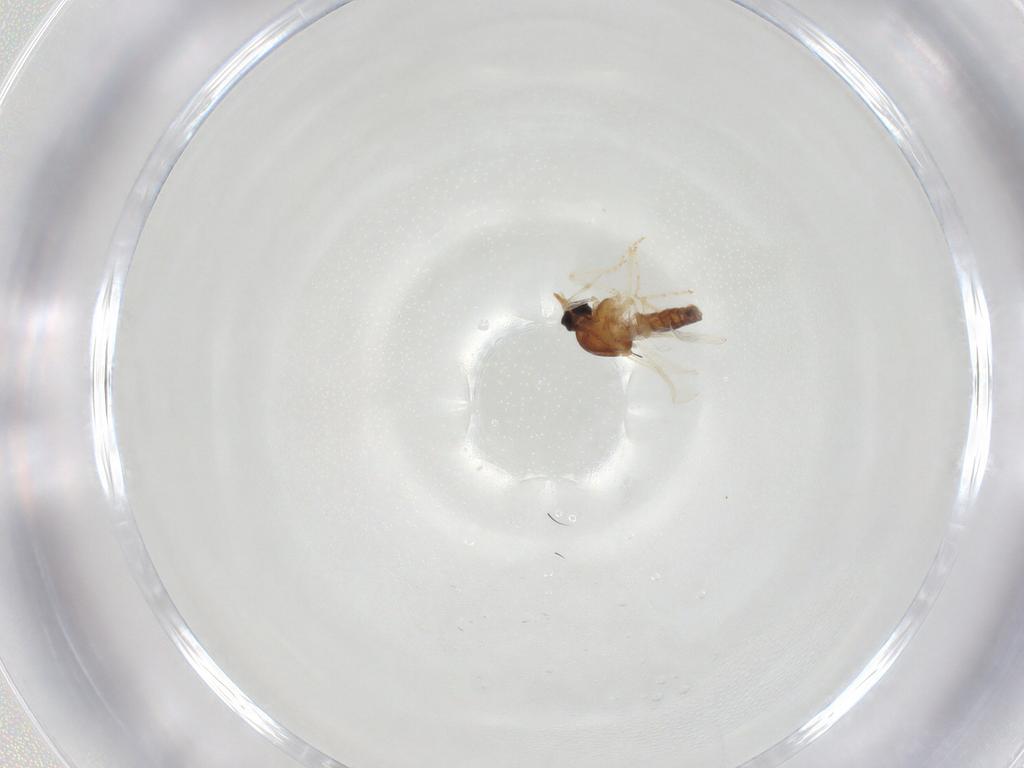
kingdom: Animalia
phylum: Arthropoda
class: Insecta
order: Diptera
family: Ceratopogonidae
